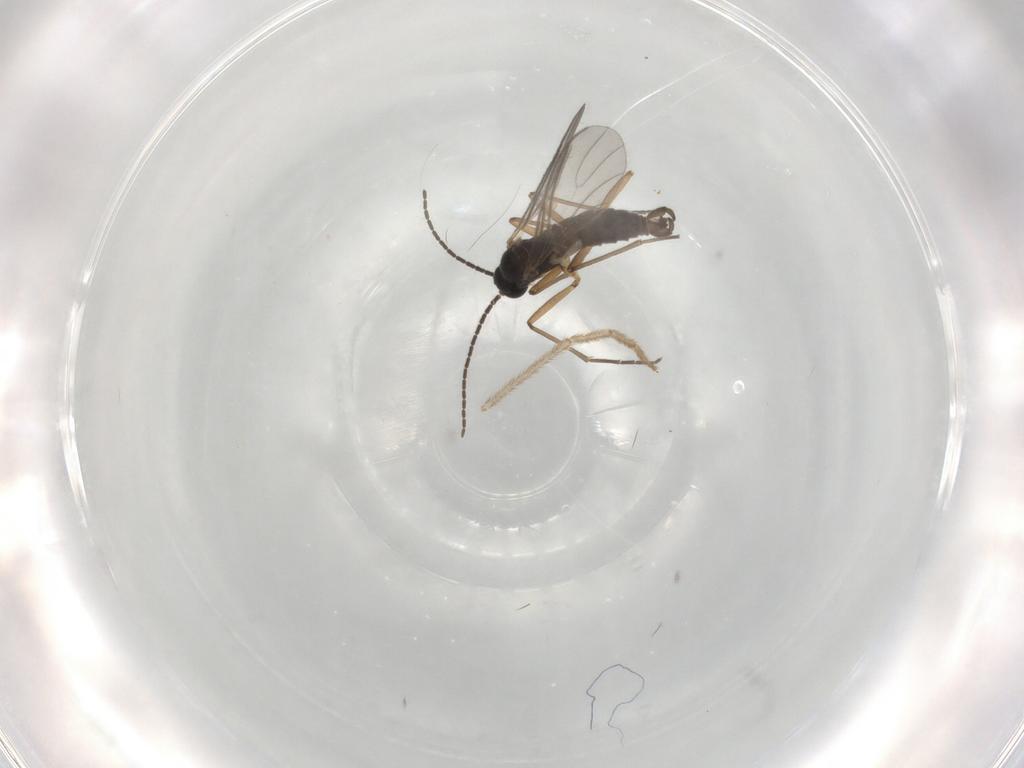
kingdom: Animalia
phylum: Arthropoda
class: Insecta
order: Diptera
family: Sciaridae
